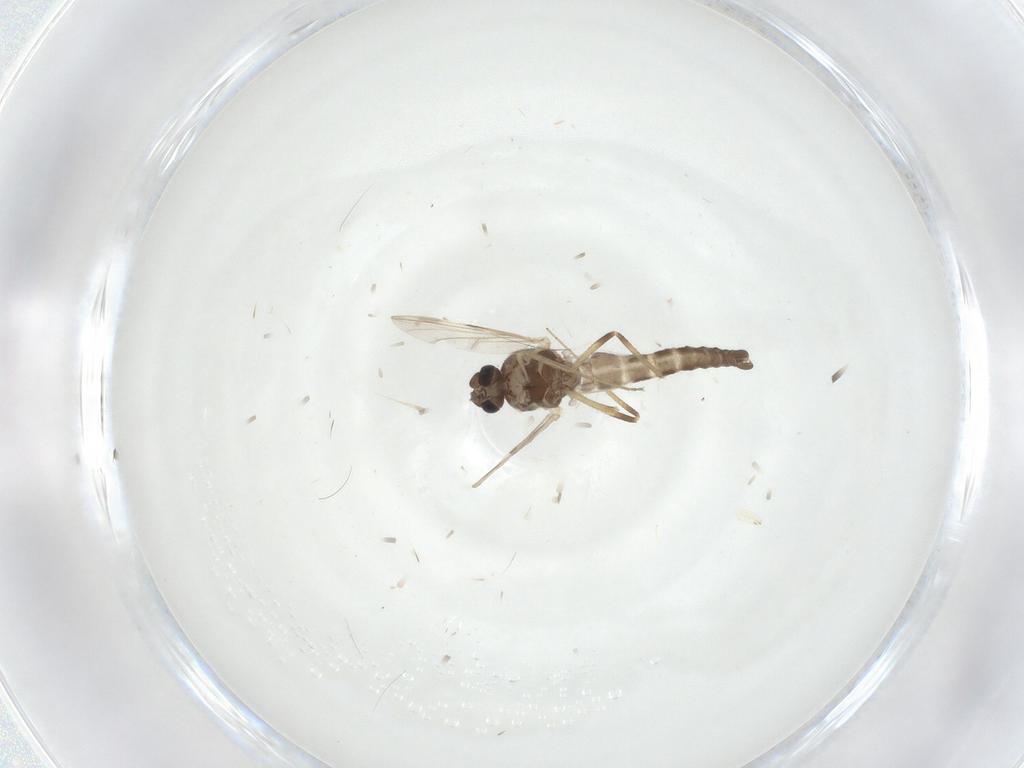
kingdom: Animalia
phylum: Arthropoda
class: Insecta
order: Diptera
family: Ceratopogonidae
